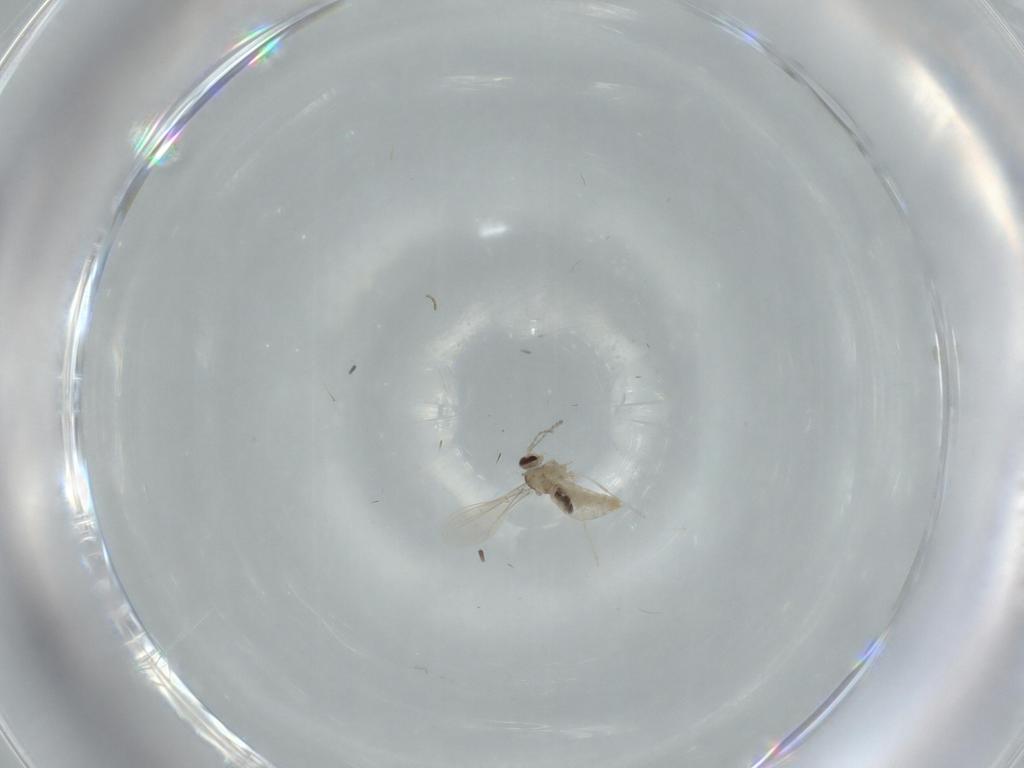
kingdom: Animalia
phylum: Arthropoda
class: Insecta
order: Diptera
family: Cecidomyiidae
